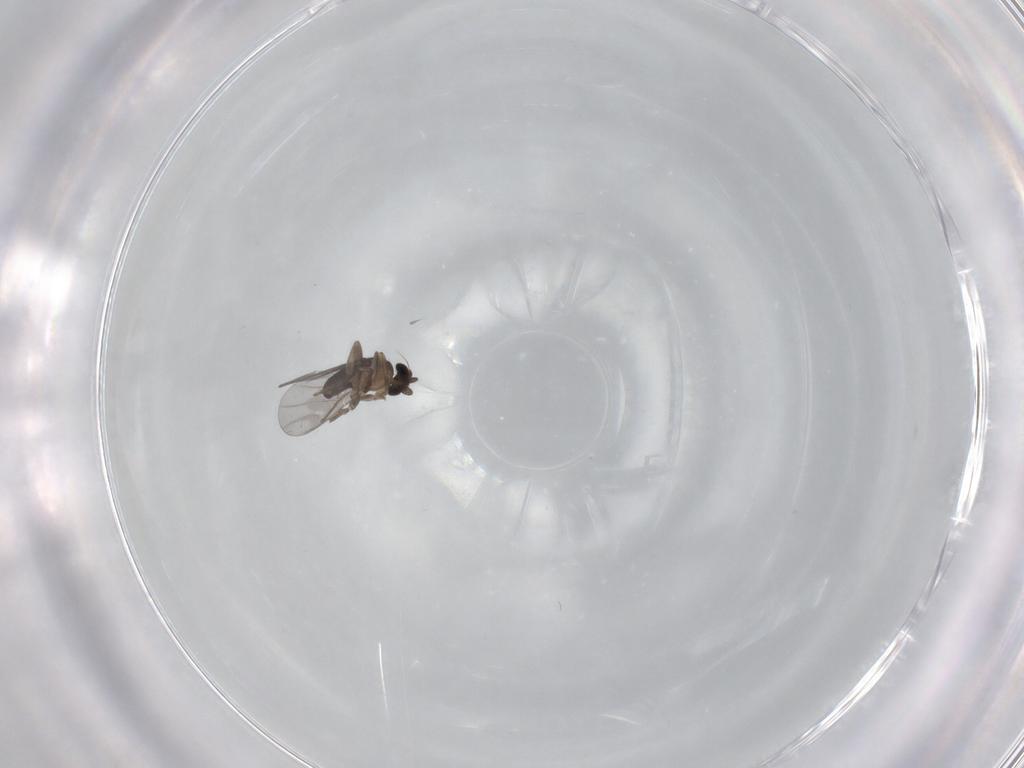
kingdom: Animalia
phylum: Arthropoda
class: Insecta
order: Diptera
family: Cecidomyiidae
